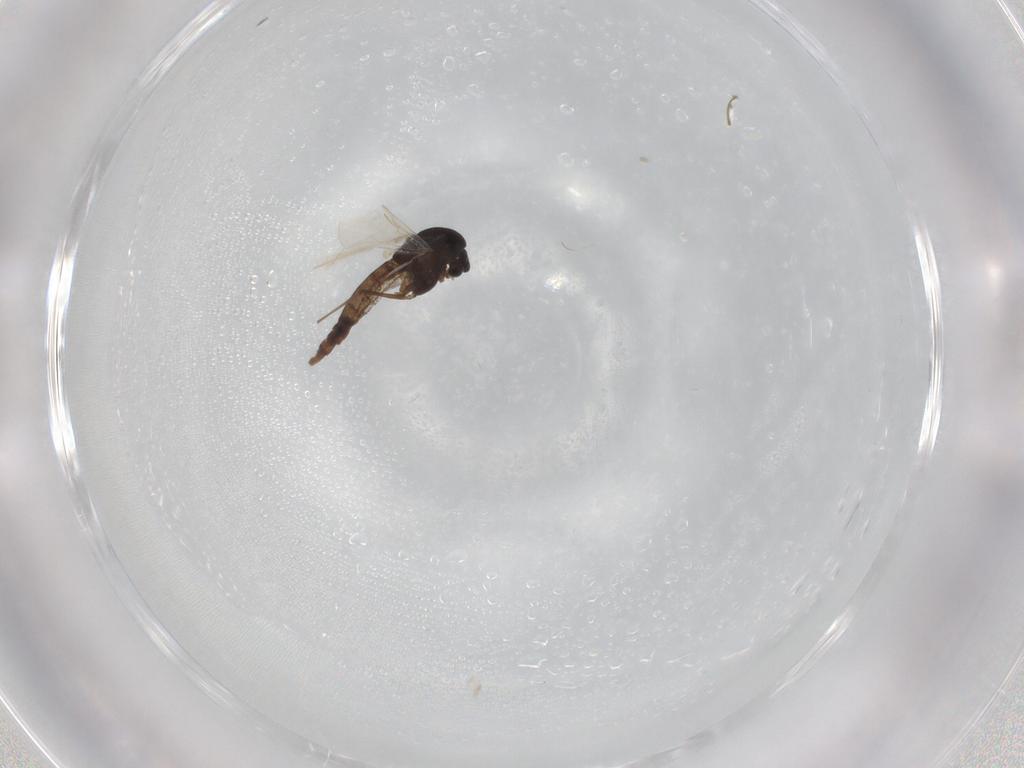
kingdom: Animalia
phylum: Arthropoda
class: Insecta
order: Diptera
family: Chironomidae
